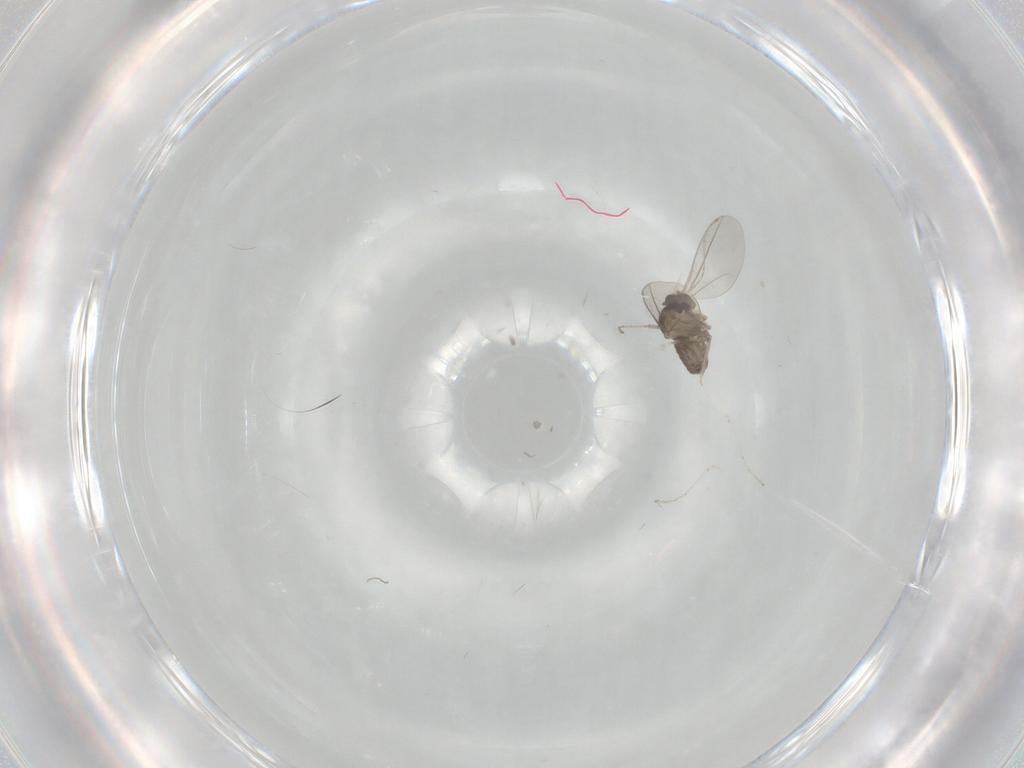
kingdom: Animalia
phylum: Arthropoda
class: Insecta
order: Diptera
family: Cecidomyiidae
